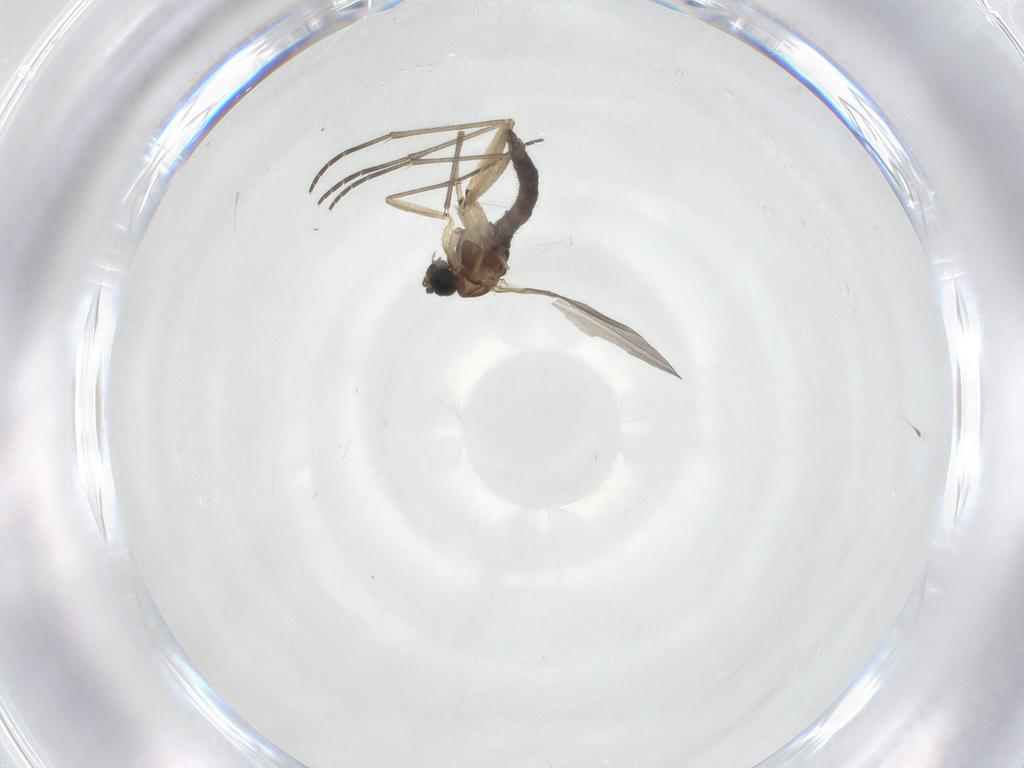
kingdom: Animalia
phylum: Arthropoda
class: Insecta
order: Diptera
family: Sciaridae
